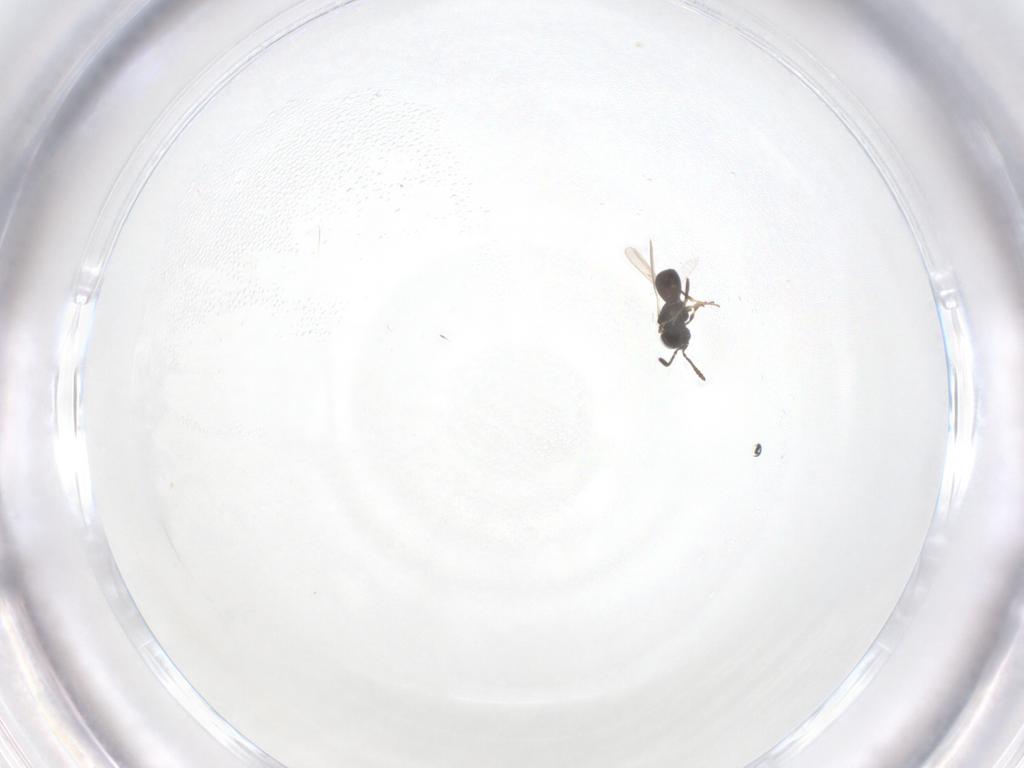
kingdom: Animalia
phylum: Arthropoda
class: Insecta
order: Hymenoptera
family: Scelionidae
